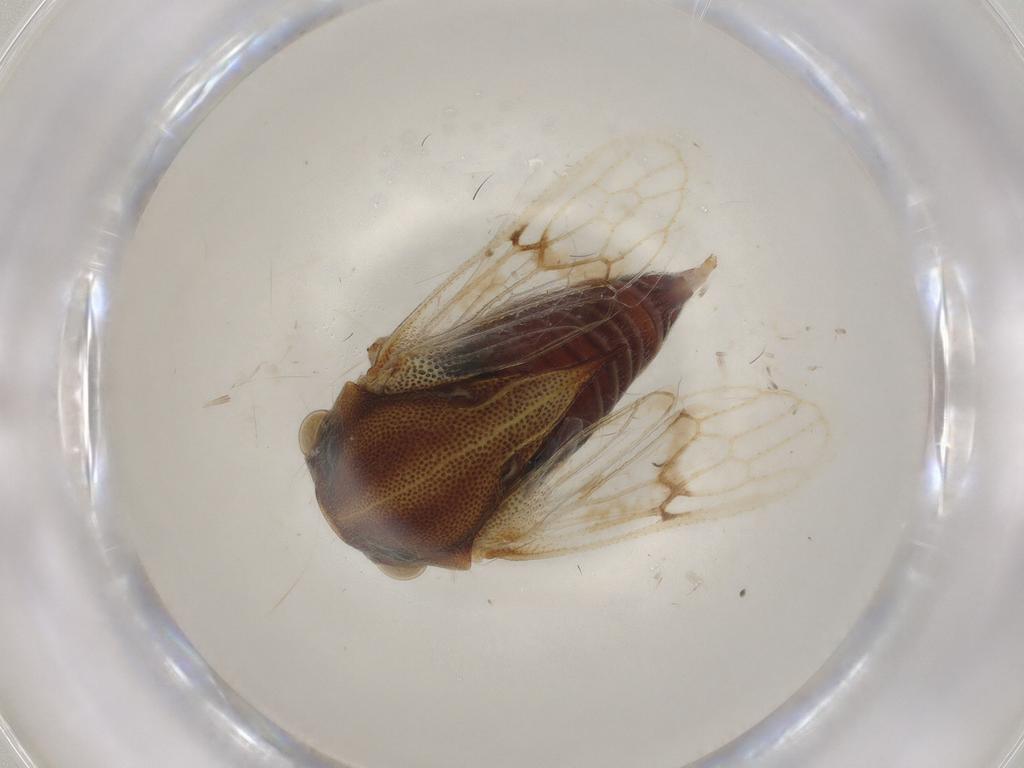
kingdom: Animalia
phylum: Arthropoda
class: Insecta
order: Hemiptera
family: Membracidae
